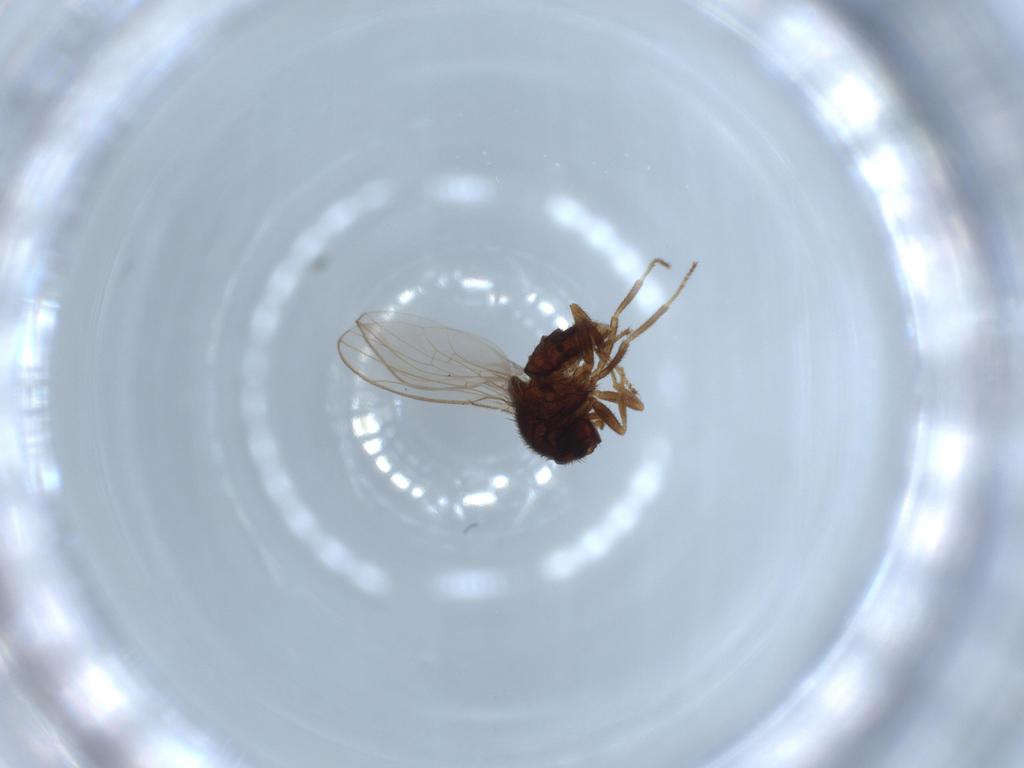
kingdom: Animalia
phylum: Arthropoda
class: Insecta
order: Diptera
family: Sciaridae
